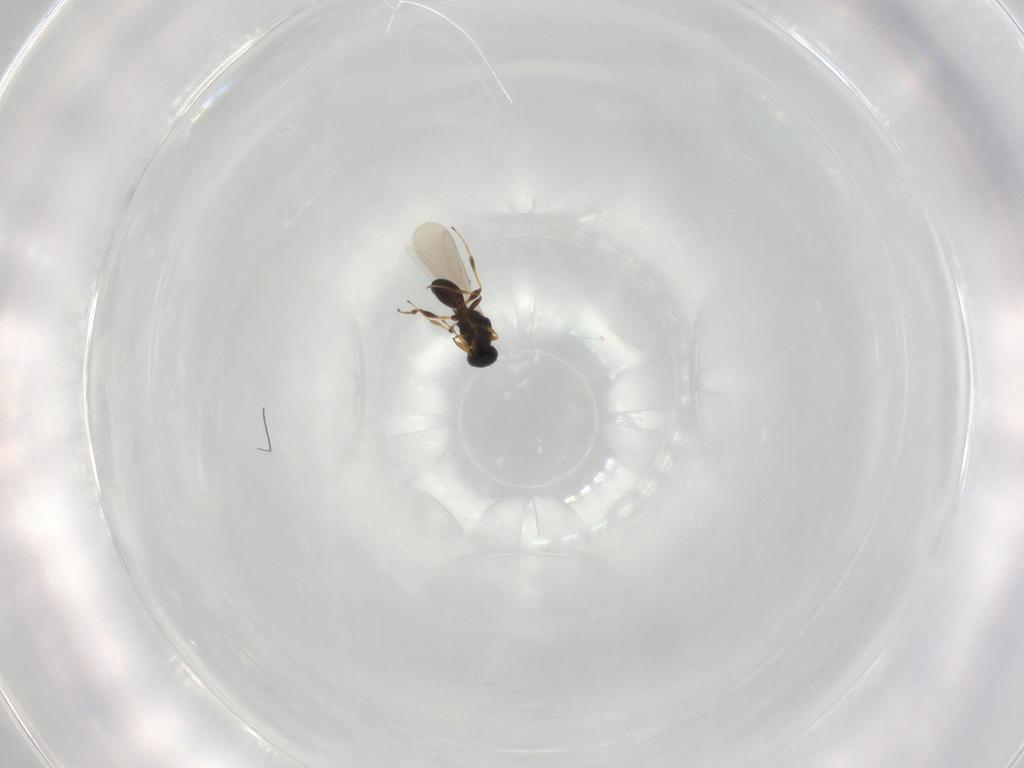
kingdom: Animalia
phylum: Arthropoda
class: Insecta
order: Hymenoptera
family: Platygastridae
